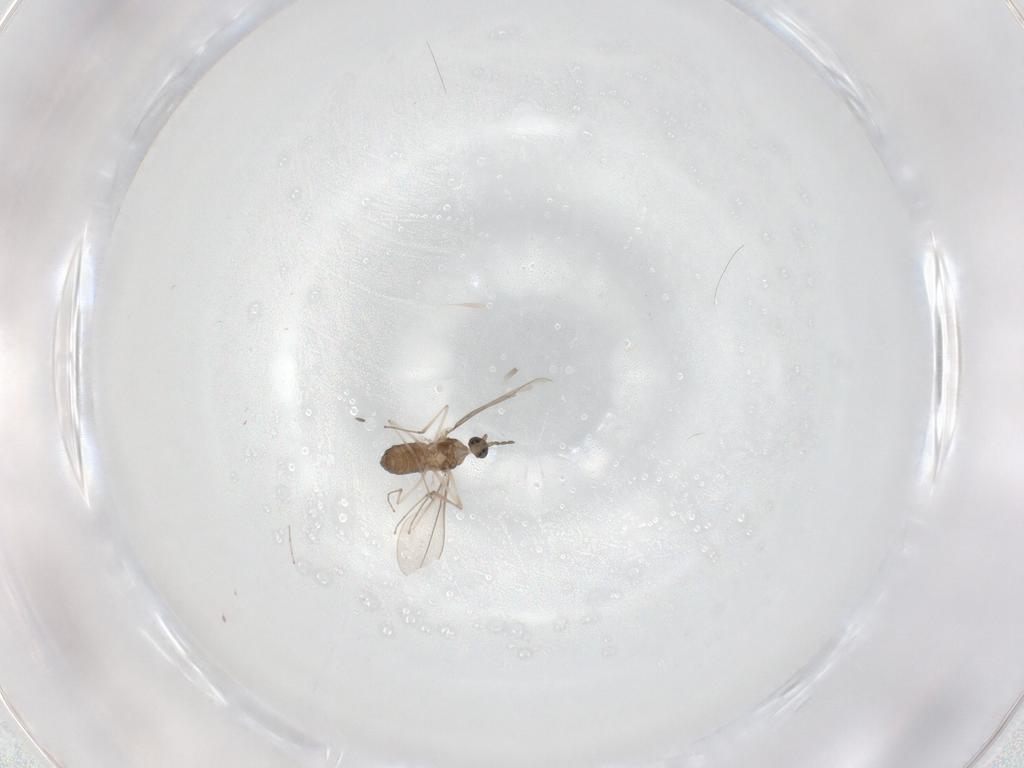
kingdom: Animalia
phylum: Arthropoda
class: Insecta
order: Diptera
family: Cecidomyiidae
